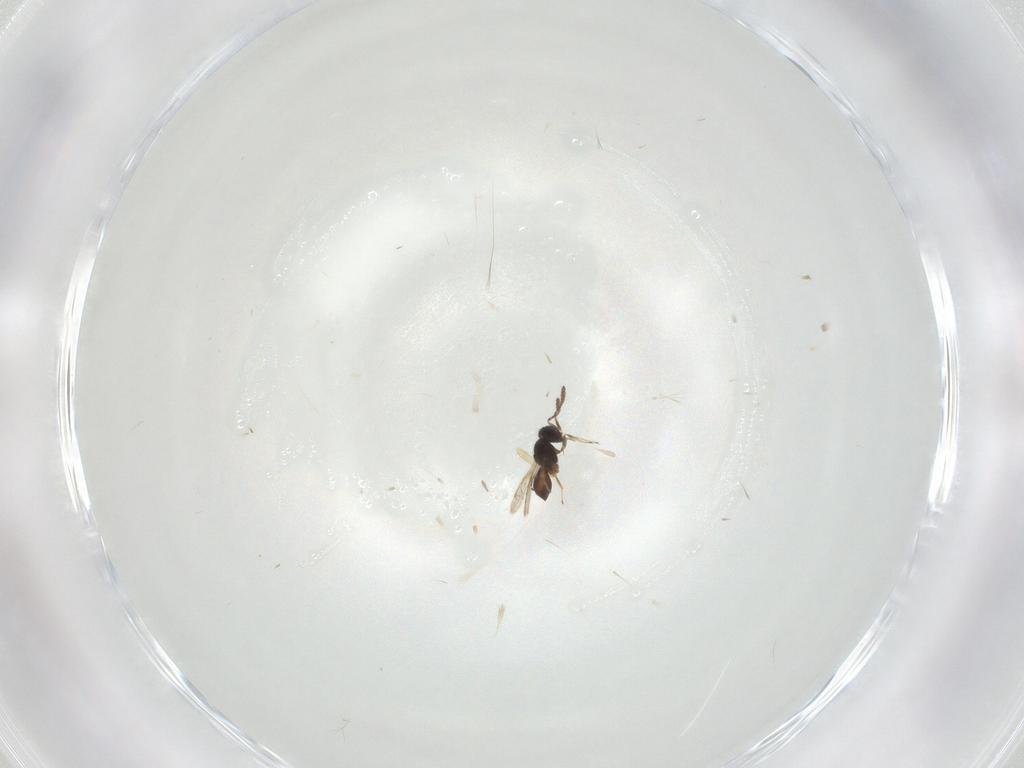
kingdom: Animalia
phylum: Arthropoda
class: Insecta
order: Hymenoptera
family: Scelionidae
